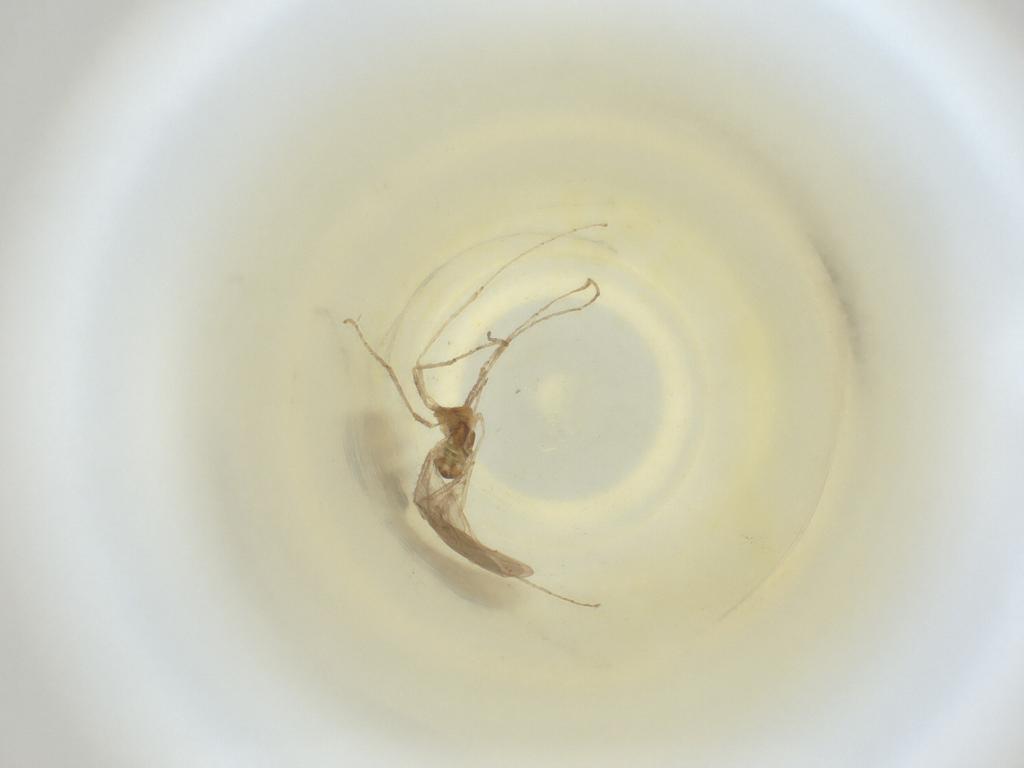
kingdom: Animalia
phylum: Arthropoda
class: Insecta
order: Diptera
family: Cecidomyiidae
